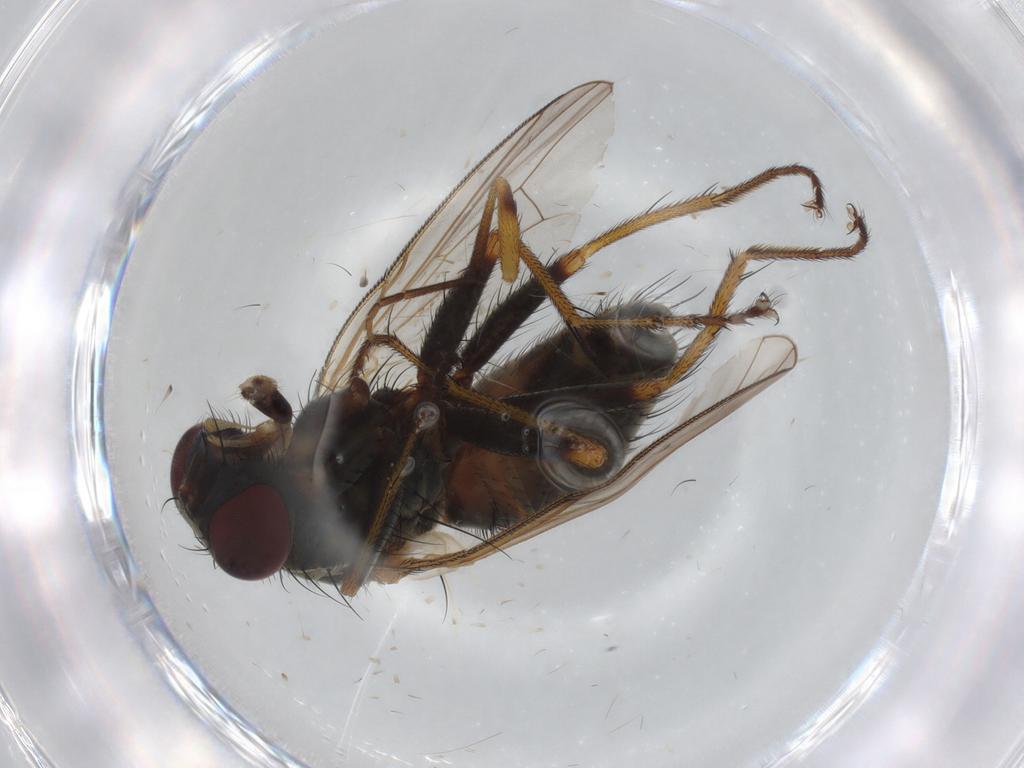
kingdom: Animalia
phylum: Arthropoda
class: Insecta
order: Diptera
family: Muscidae
